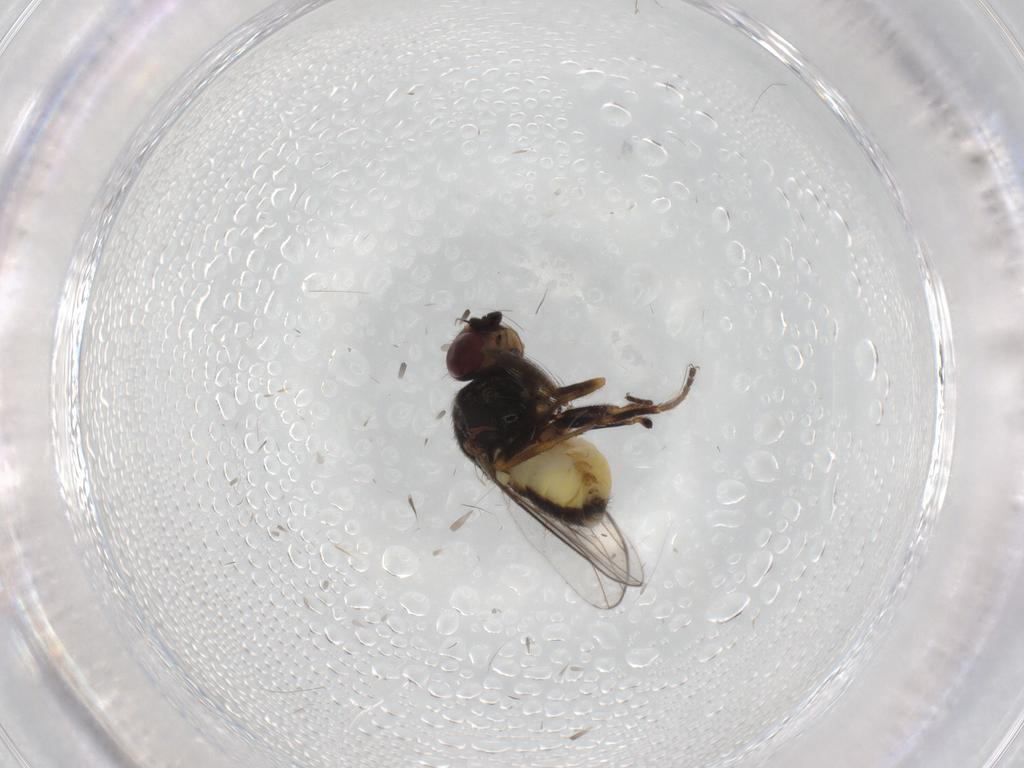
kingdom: Animalia
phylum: Arthropoda
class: Insecta
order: Diptera
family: Chloropidae
